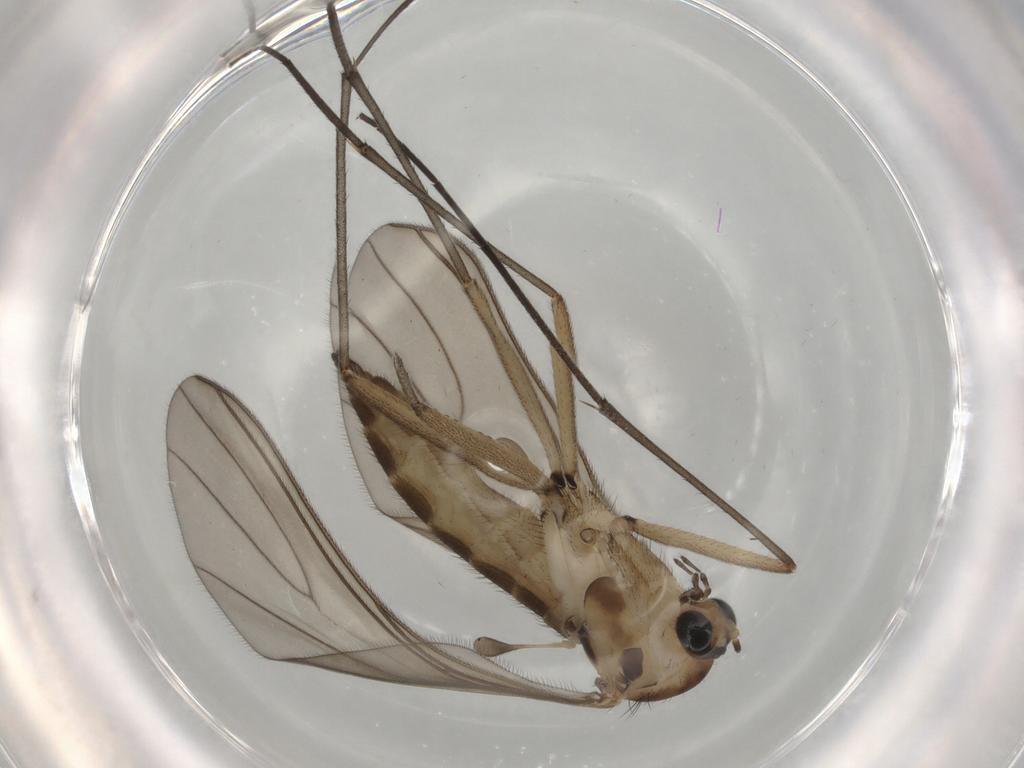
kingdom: Animalia
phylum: Arthropoda
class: Insecta
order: Diptera
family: Sciaridae
